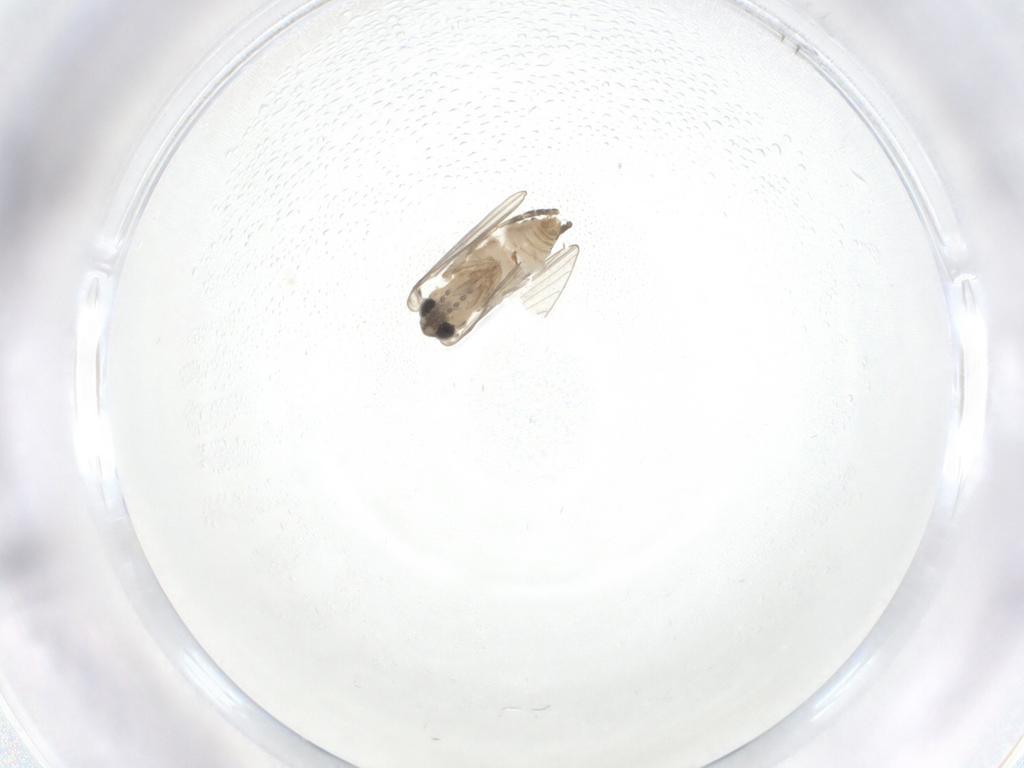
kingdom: Animalia
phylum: Arthropoda
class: Insecta
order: Diptera
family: Psychodidae
